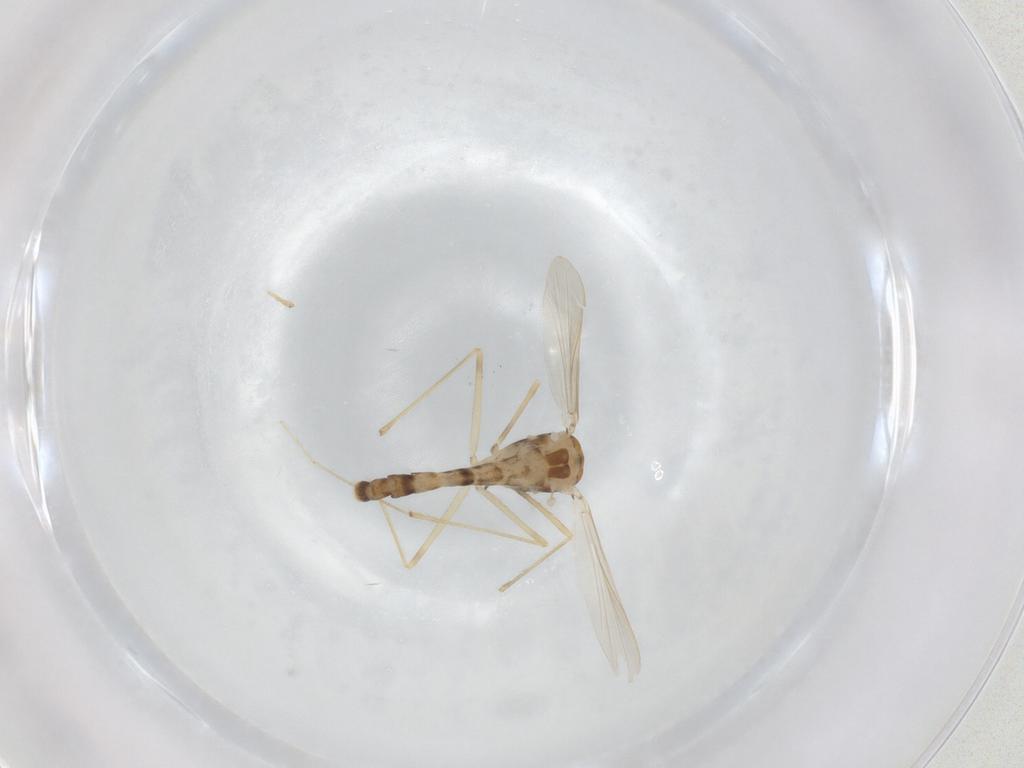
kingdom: Animalia
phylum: Arthropoda
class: Insecta
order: Diptera
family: Chironomidae
